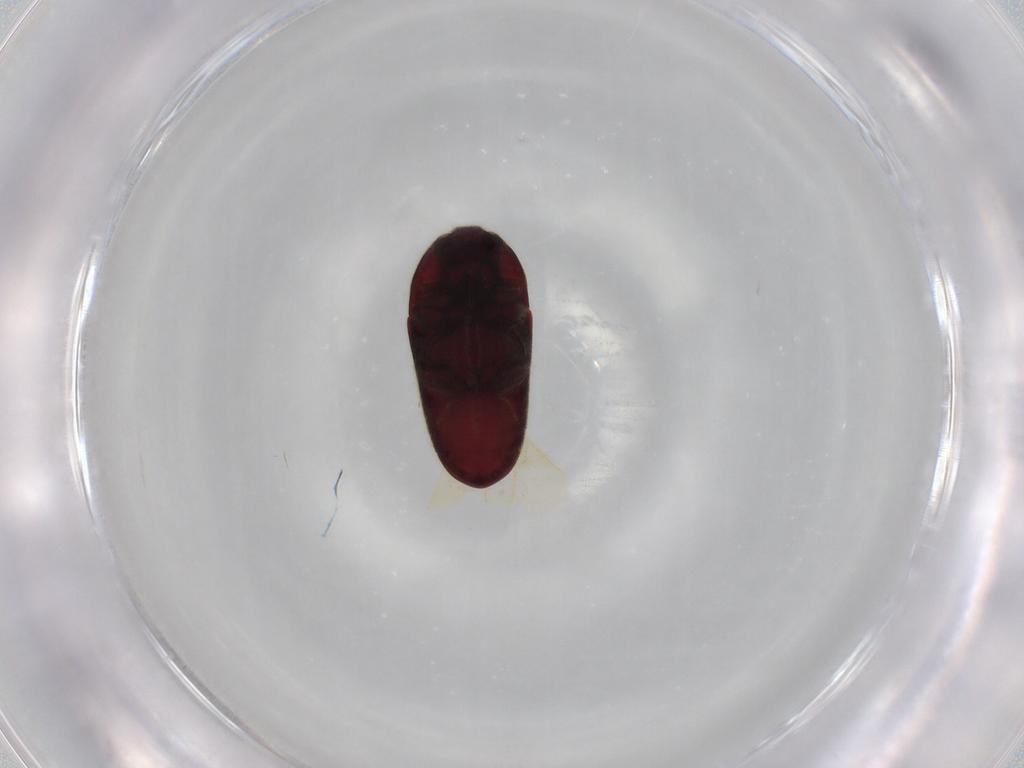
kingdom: Animalia
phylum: Arthropoda
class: Insecta
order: Coleoptera
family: Throscidae
